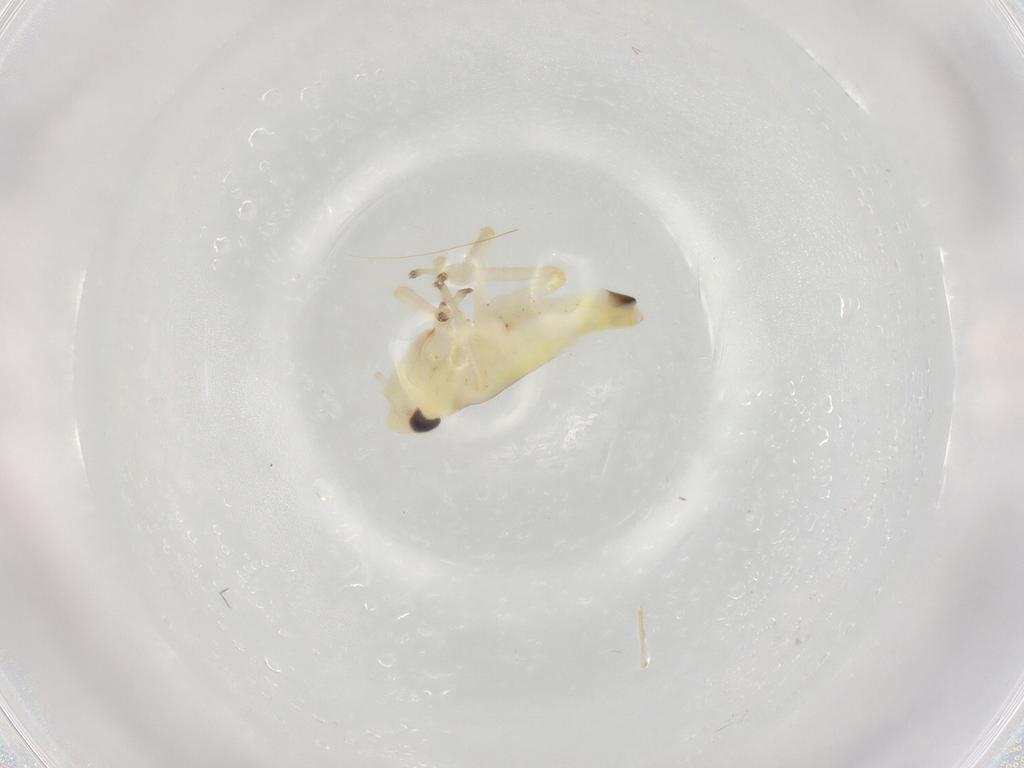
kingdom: Animalia
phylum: Arthropoda
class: Insecta
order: Hemiptera
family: Cicadellidae
